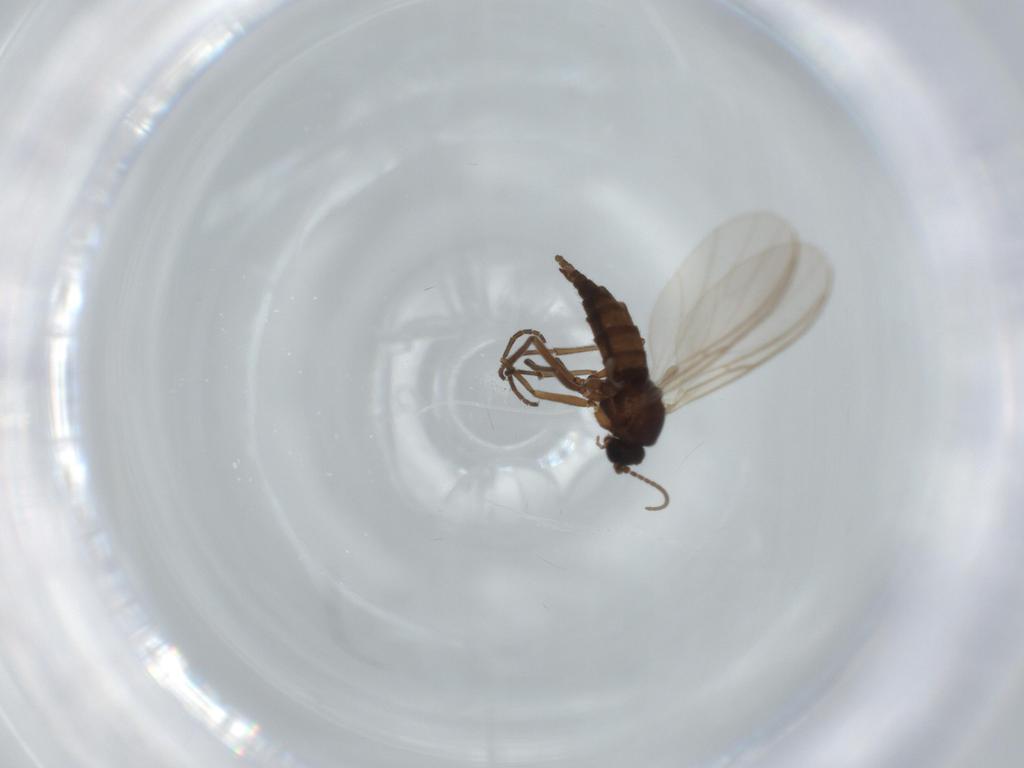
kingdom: Animalia
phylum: Arthropoda
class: Insecta
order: Diptera
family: Sciaridae
